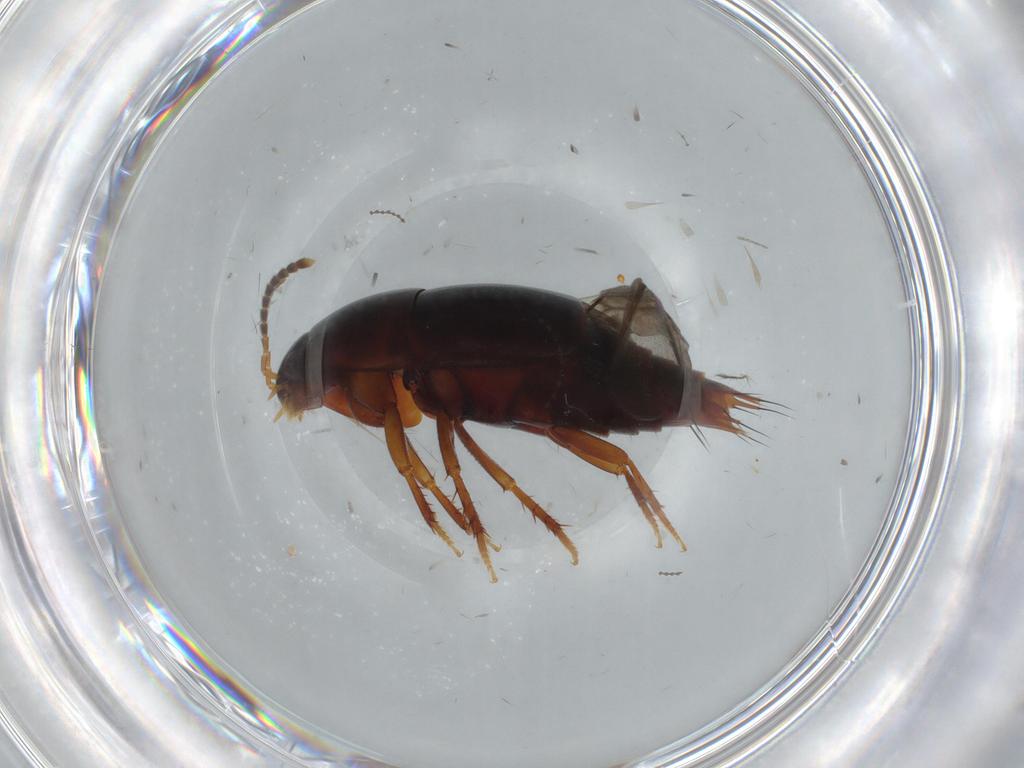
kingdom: Animalia
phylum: Arthropoda
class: Insecta
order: Coleoptera
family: Staphylinidae
